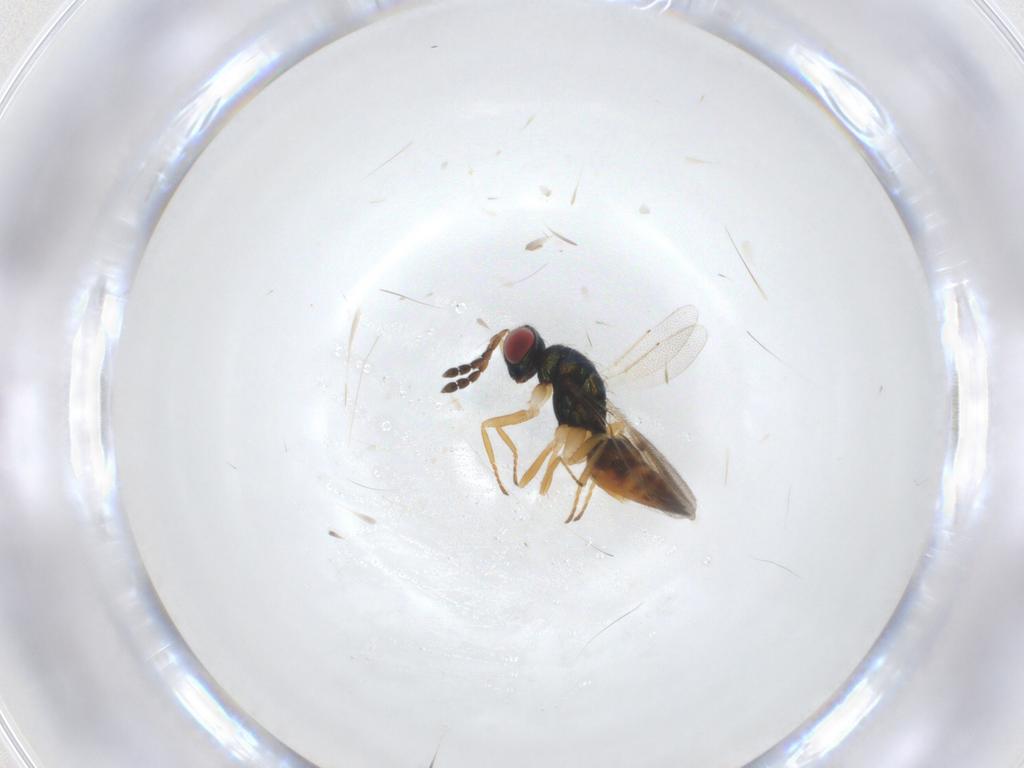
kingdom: Animalia
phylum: Arthropoda
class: Insecta
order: Hymenoptera
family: Eulophidae
